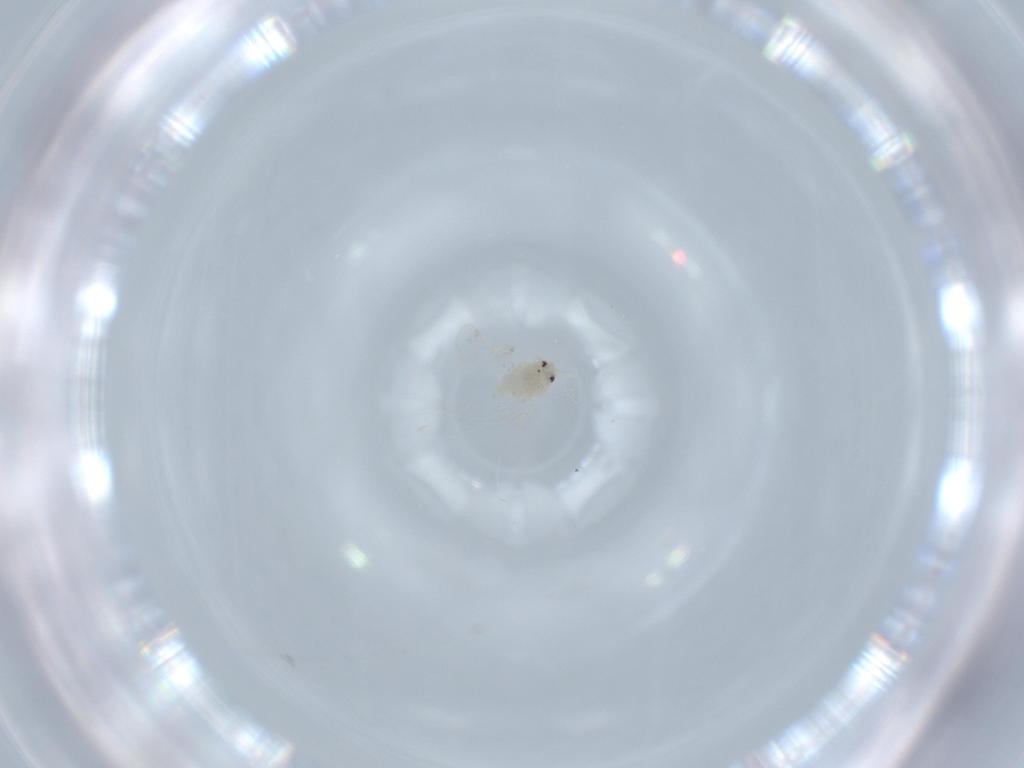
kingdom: Animalia
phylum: Arthropoda
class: Insecta
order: Hemiptera
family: Aleyrodidae
